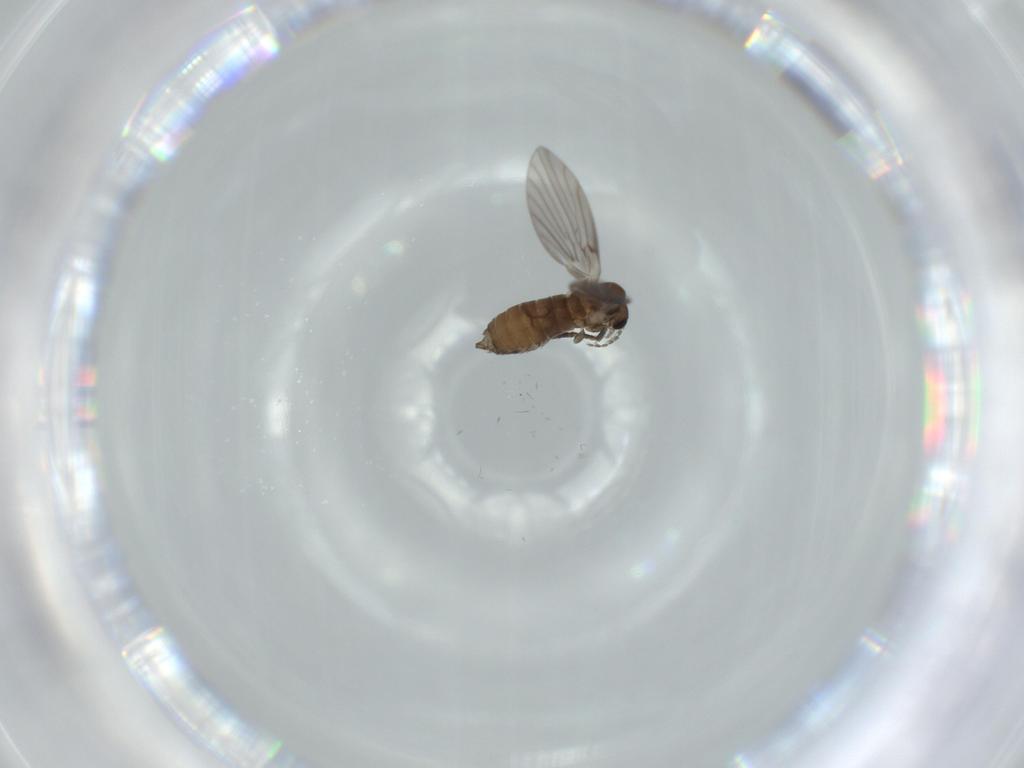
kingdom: Animalia
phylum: Arthropoda
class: Insecta
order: Diptera
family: Psychodidae
